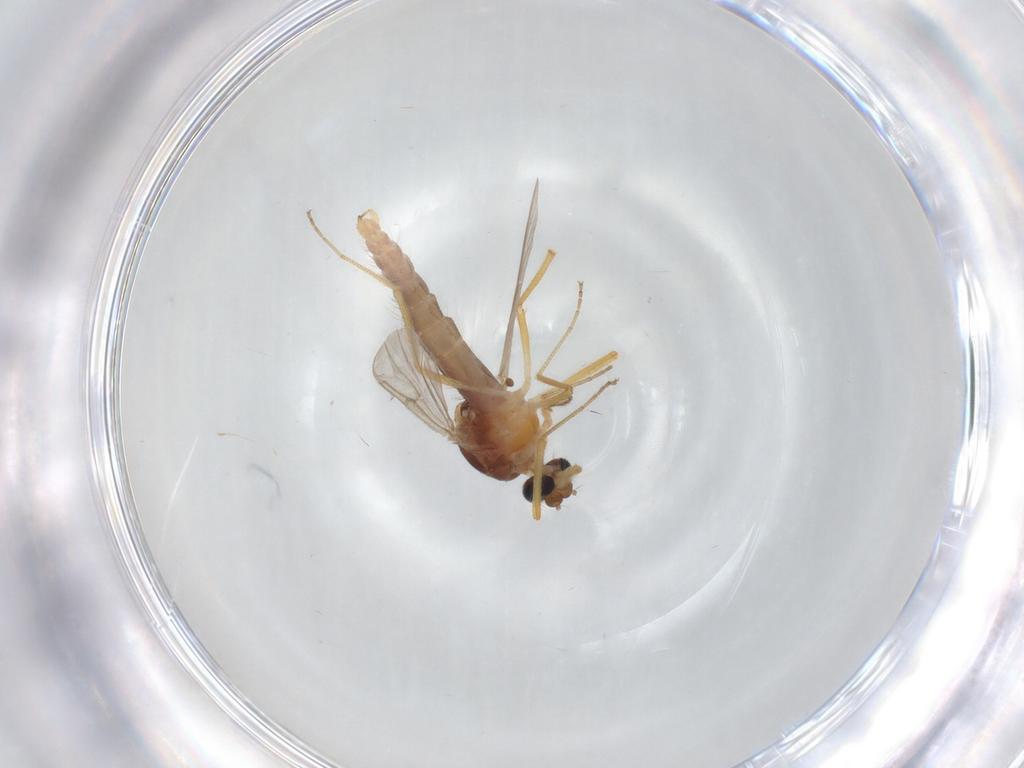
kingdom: Animalia
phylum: Arthropoda
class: Insecta
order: Diptera
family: Ceratopogonidae
